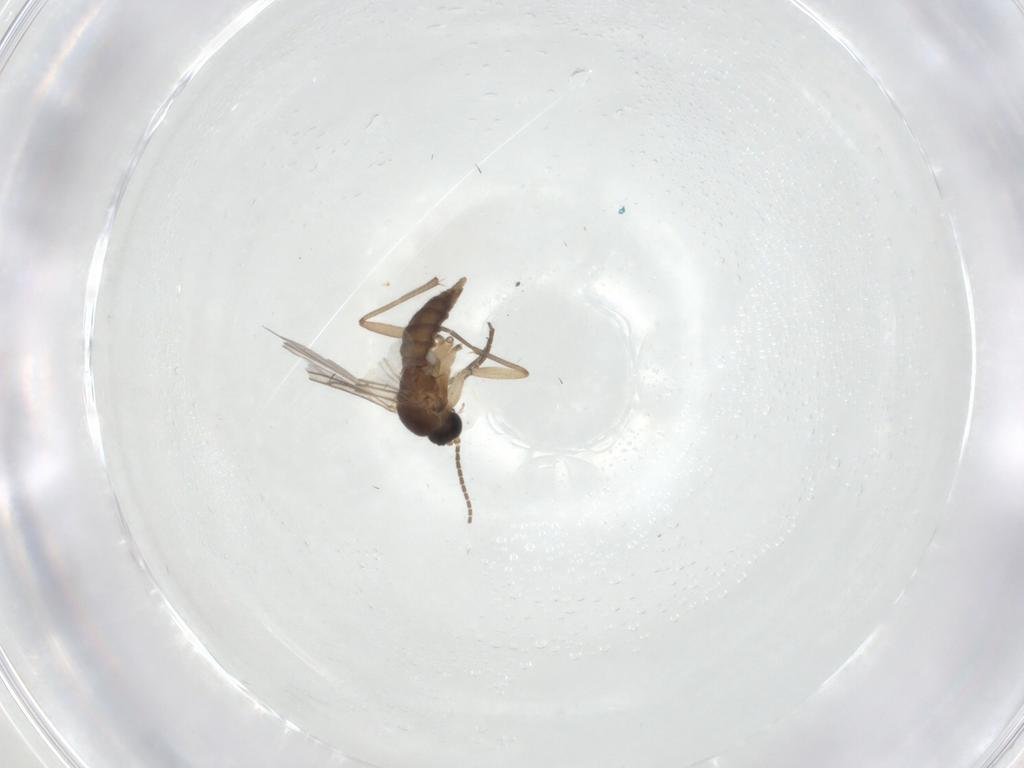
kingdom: Animalia
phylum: Arthropoda
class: Insecta
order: Diptera
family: Sciaridae
